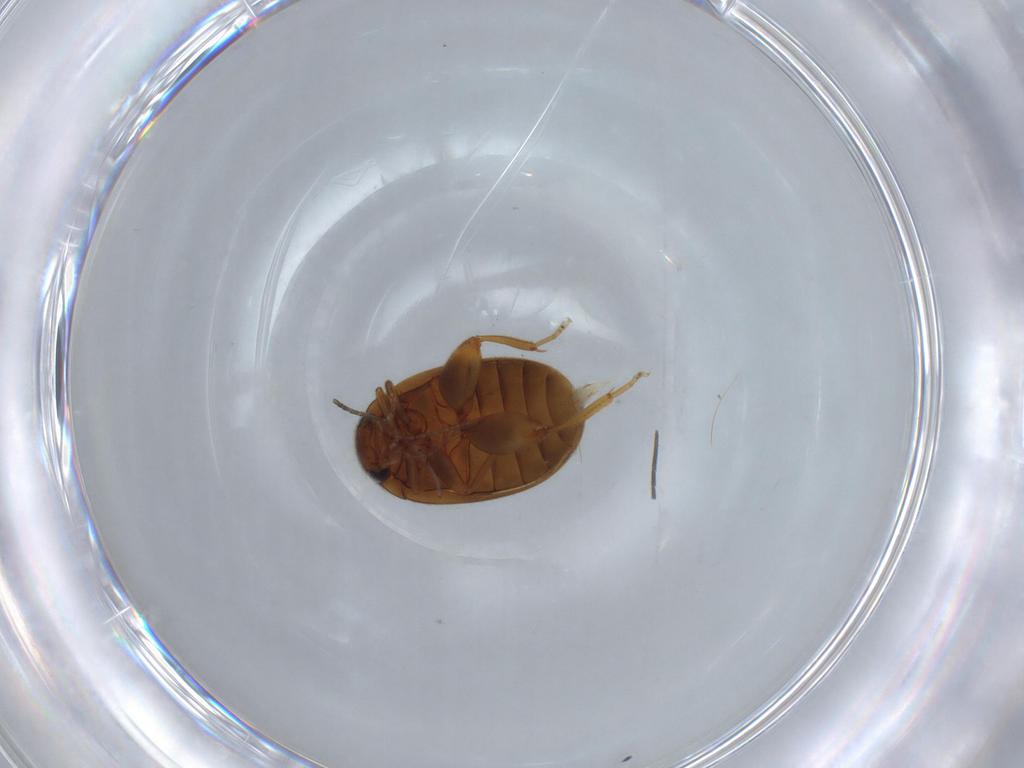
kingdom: Animalia
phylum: Arthropoda
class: Insecta
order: Coleoptera
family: Scirtidae
